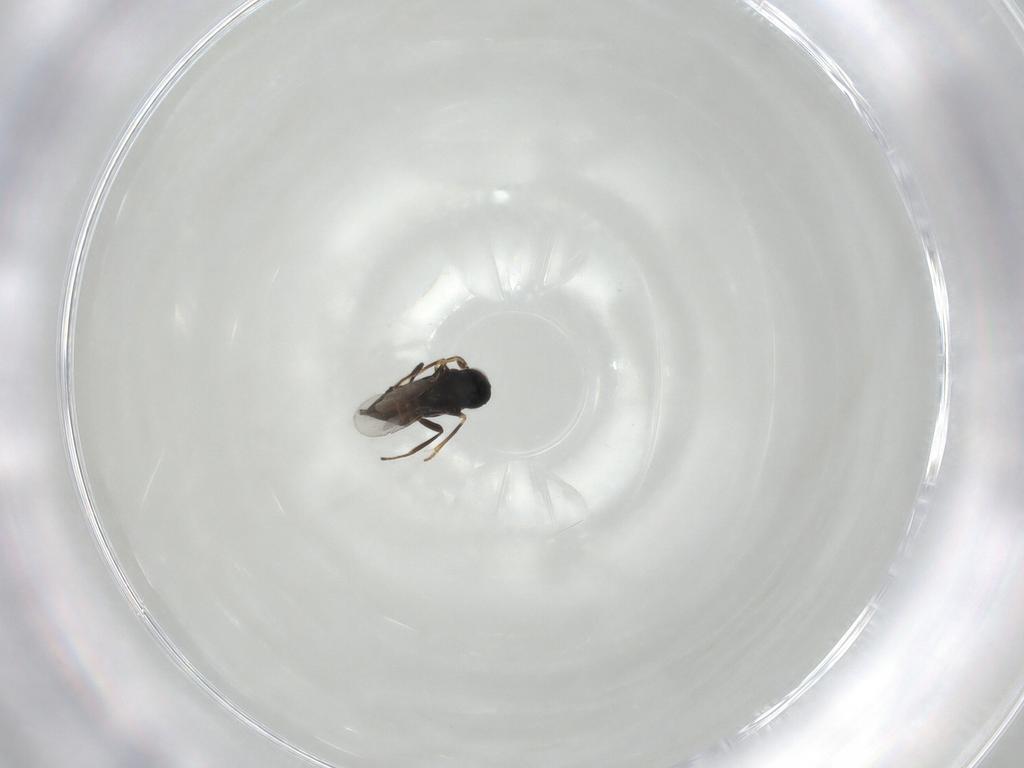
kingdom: Animalia
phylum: Arthropoda
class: Insecta
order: Hymenoptera
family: Encyrtidae
